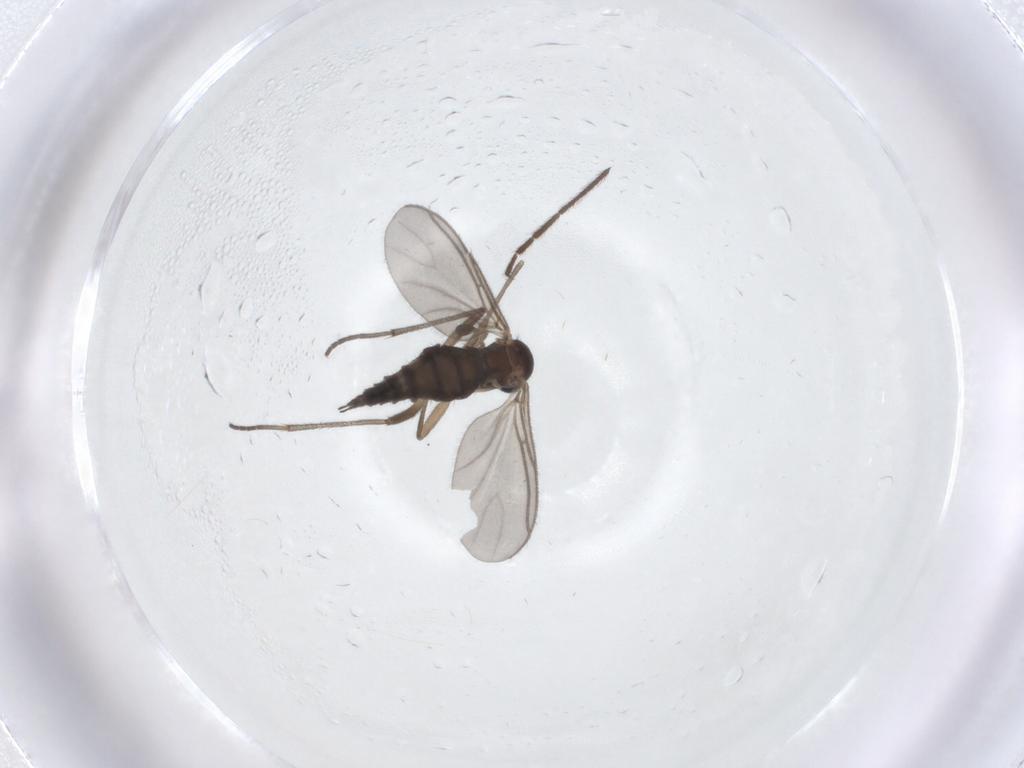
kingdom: Animalia
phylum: Arthropoda
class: Insecta
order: Diptera
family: Sciaridae
